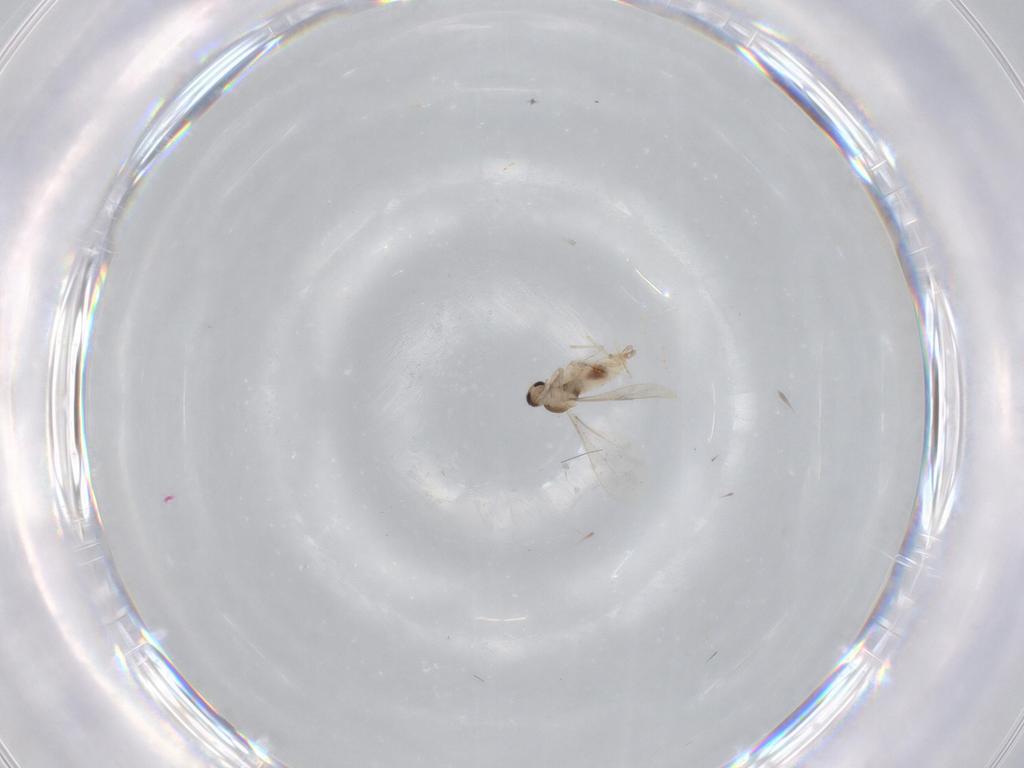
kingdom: Animalia
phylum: Arthropoda
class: Insecta
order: Diptera
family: Cecidomyiidae
